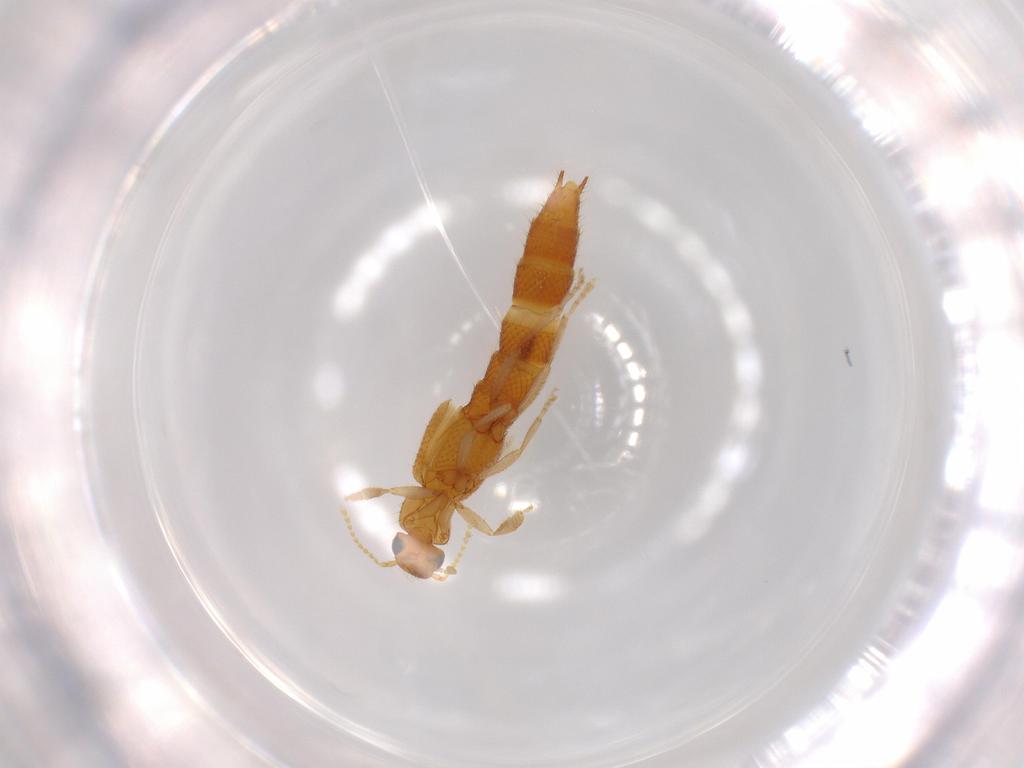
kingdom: Animalia
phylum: Arthropoda
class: Insecta
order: Coleoptera
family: Staphylinidae
